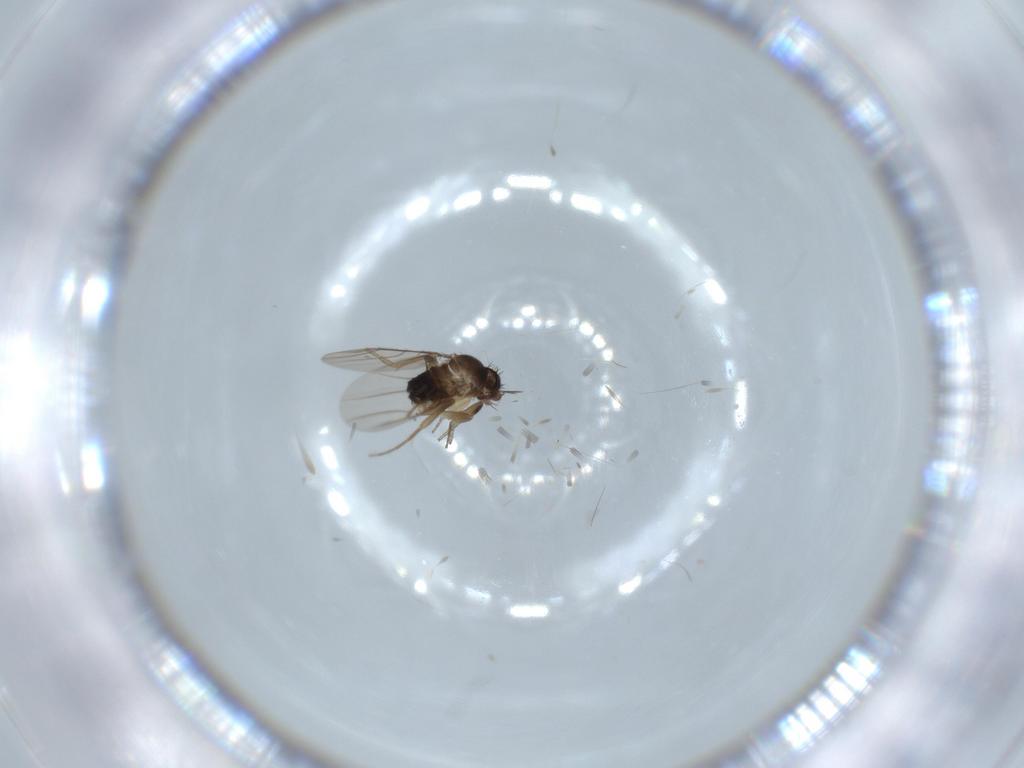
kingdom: Animalia
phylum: Arthropoda
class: Insecta
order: Diptera
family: Phoridae
